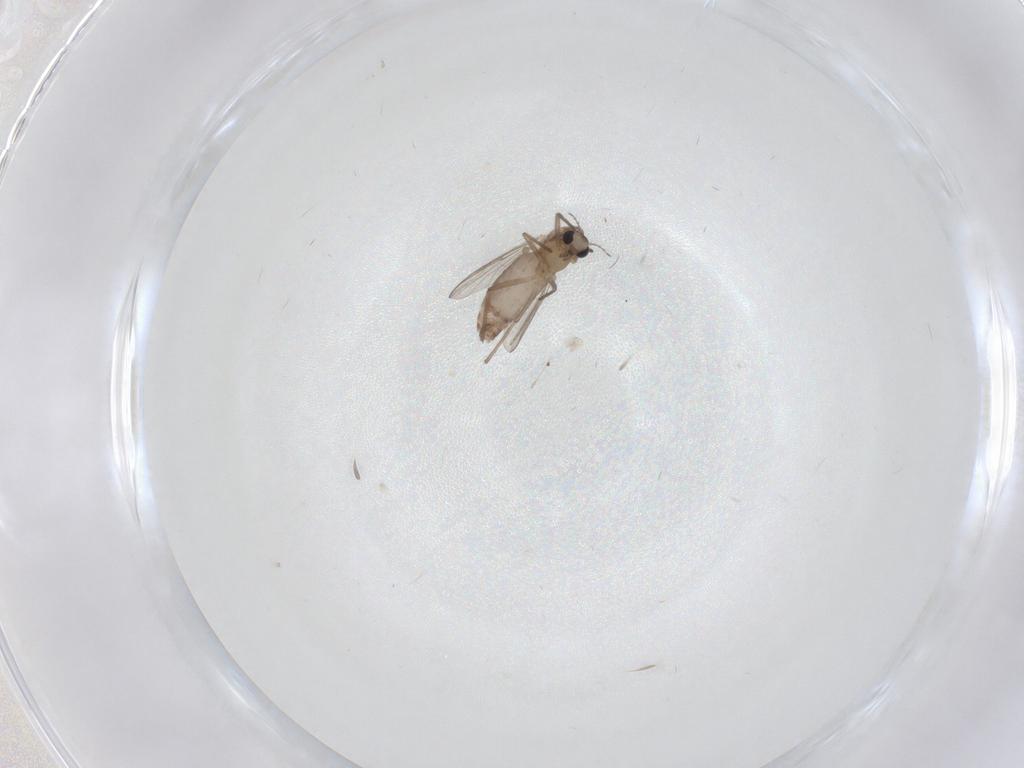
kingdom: Animalia
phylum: Arthropoda
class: Insecta
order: Diptera
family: Chironomidae
